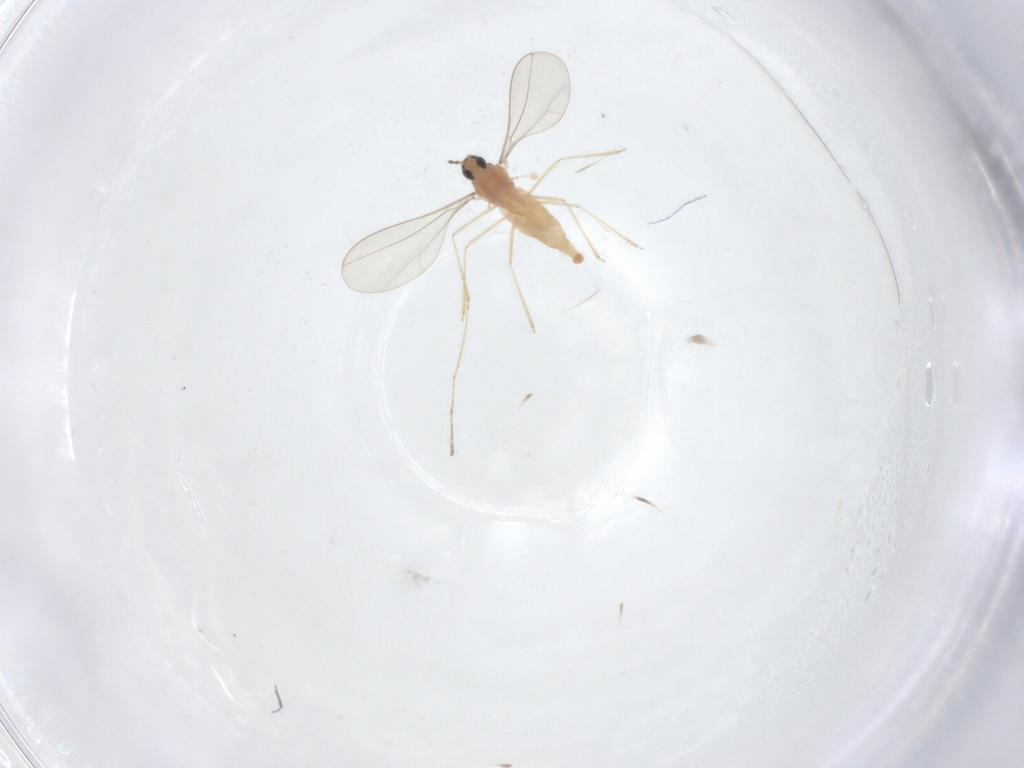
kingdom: Animalia
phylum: Arthropoda
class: Insecta
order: Diptera
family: Cecidomyiidae
